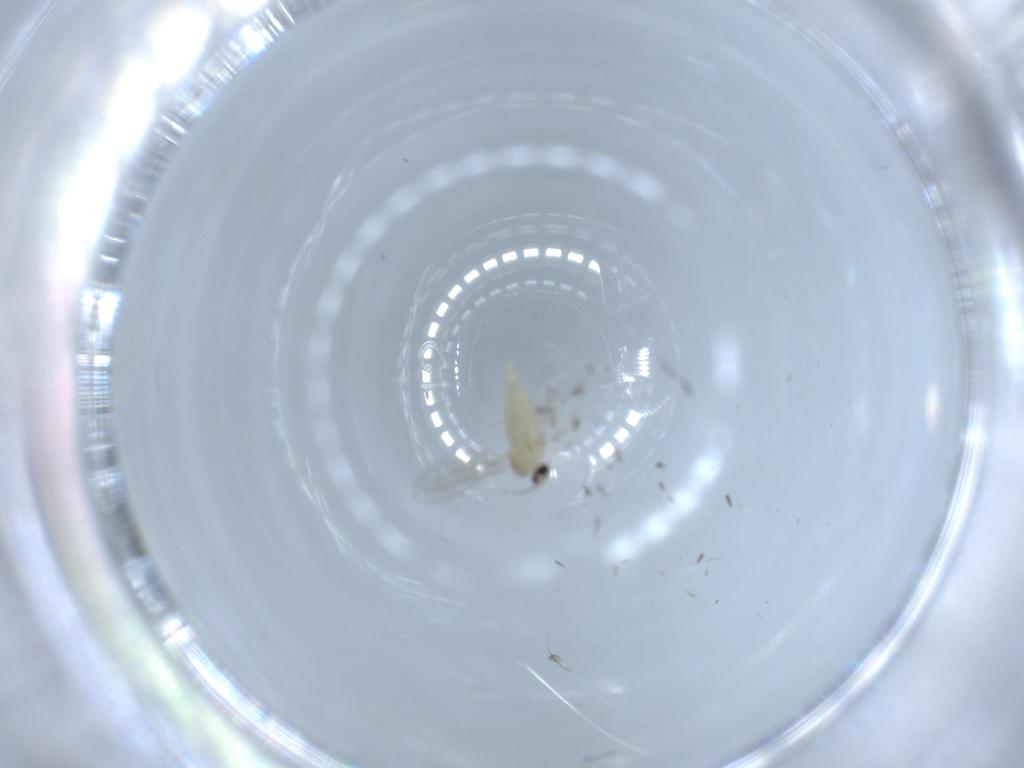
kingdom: Animalia
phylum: Arthropoda
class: Insecta
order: Diptera
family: Cecidomyiidae
